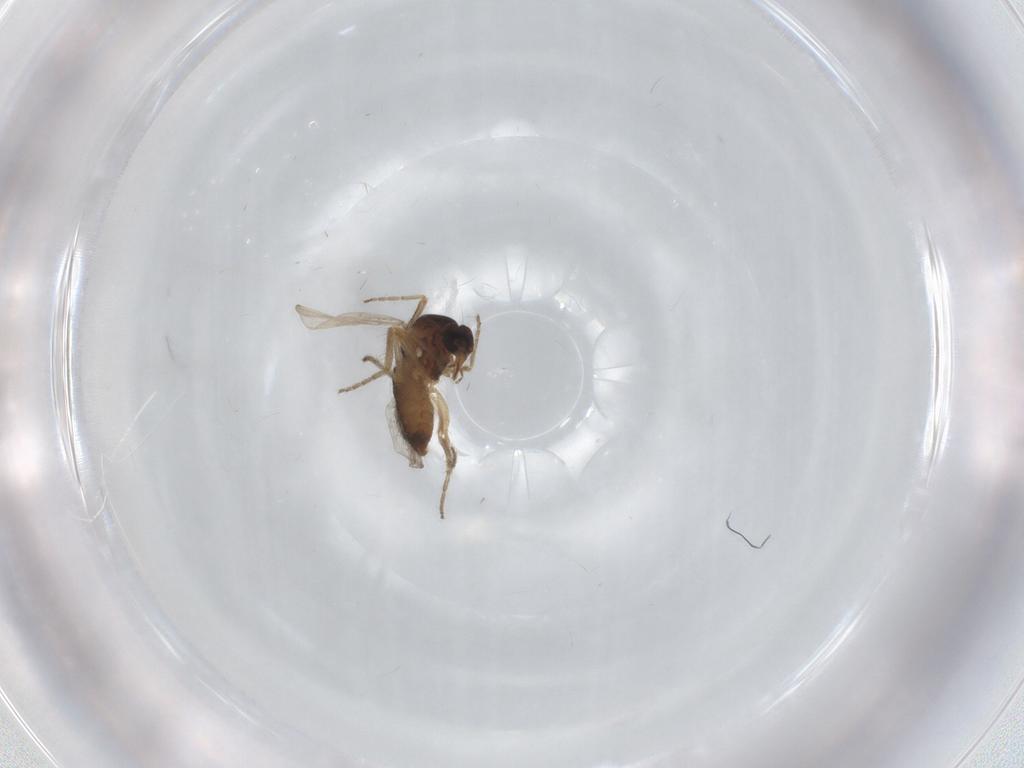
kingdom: Animalia
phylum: Arthropoda
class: Insecta
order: Diptera
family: Ceratopogonidae
